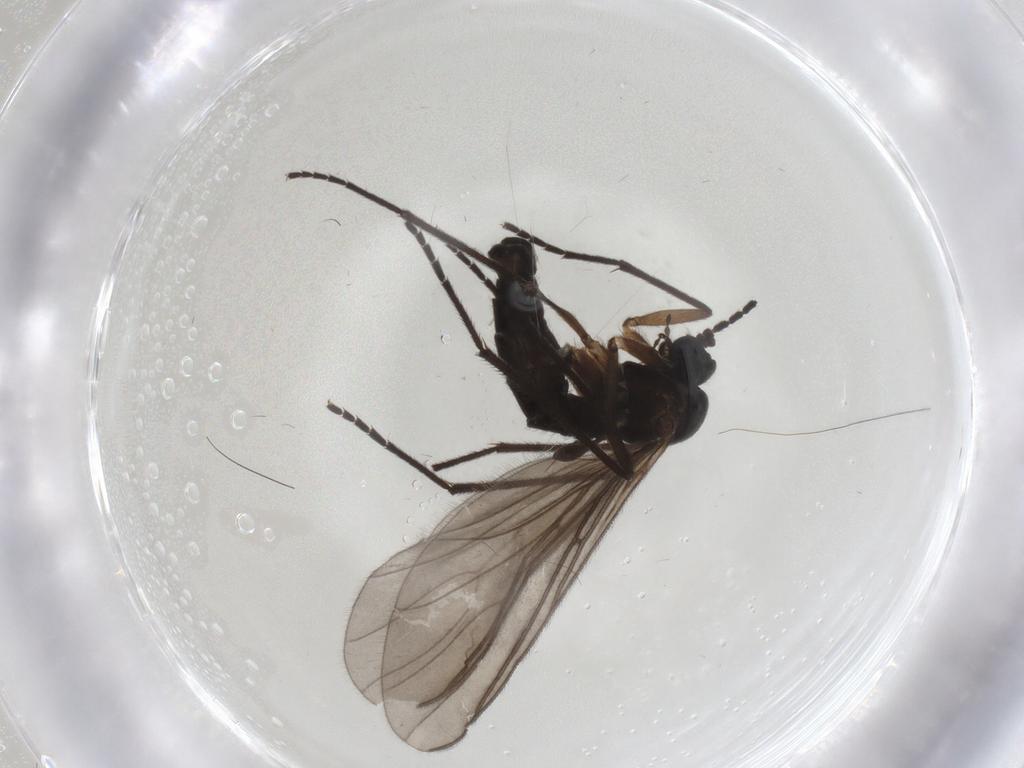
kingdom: Animalia
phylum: Arthropoda
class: Insecta
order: Diptera
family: Sciaridae
